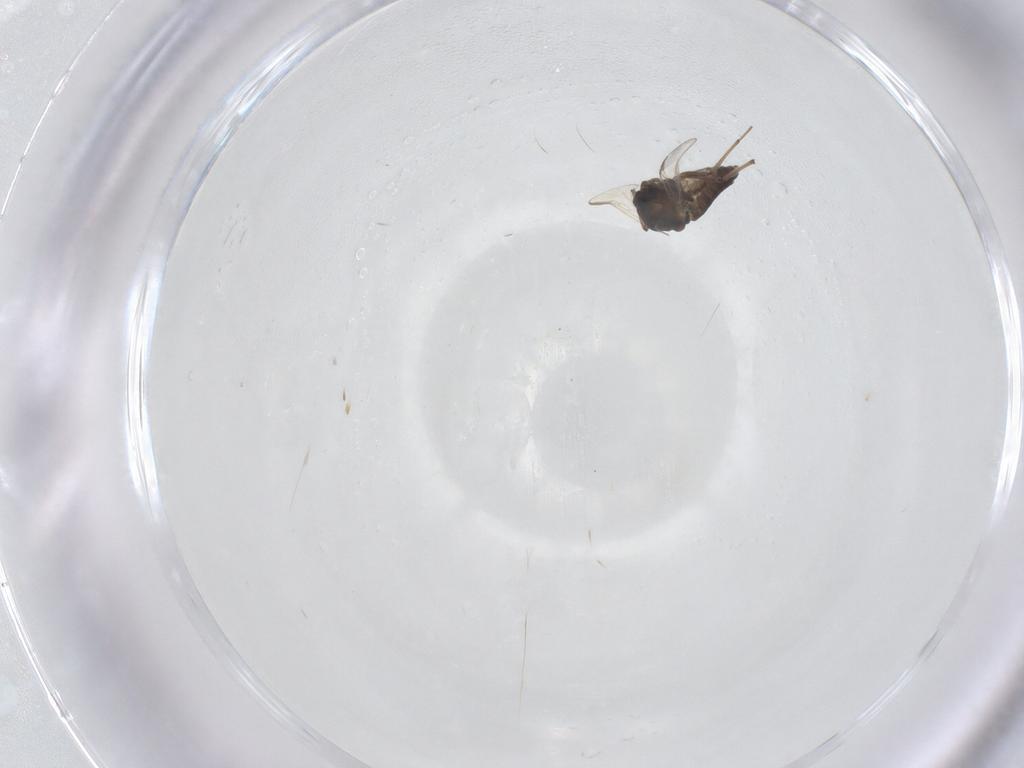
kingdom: Animalia
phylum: Arthropoda
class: Insecta
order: Diptera
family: Chironomidae
